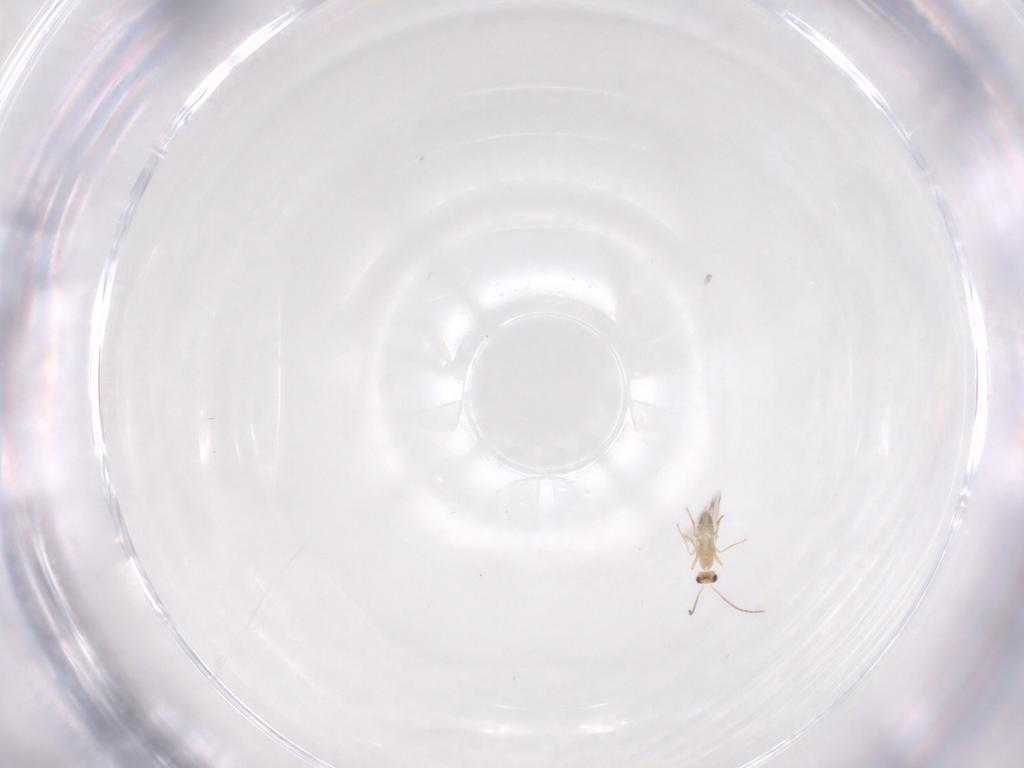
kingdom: Animalia
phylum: Arthropoda
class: Insecta
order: Hymenoptera
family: Mymaridae
